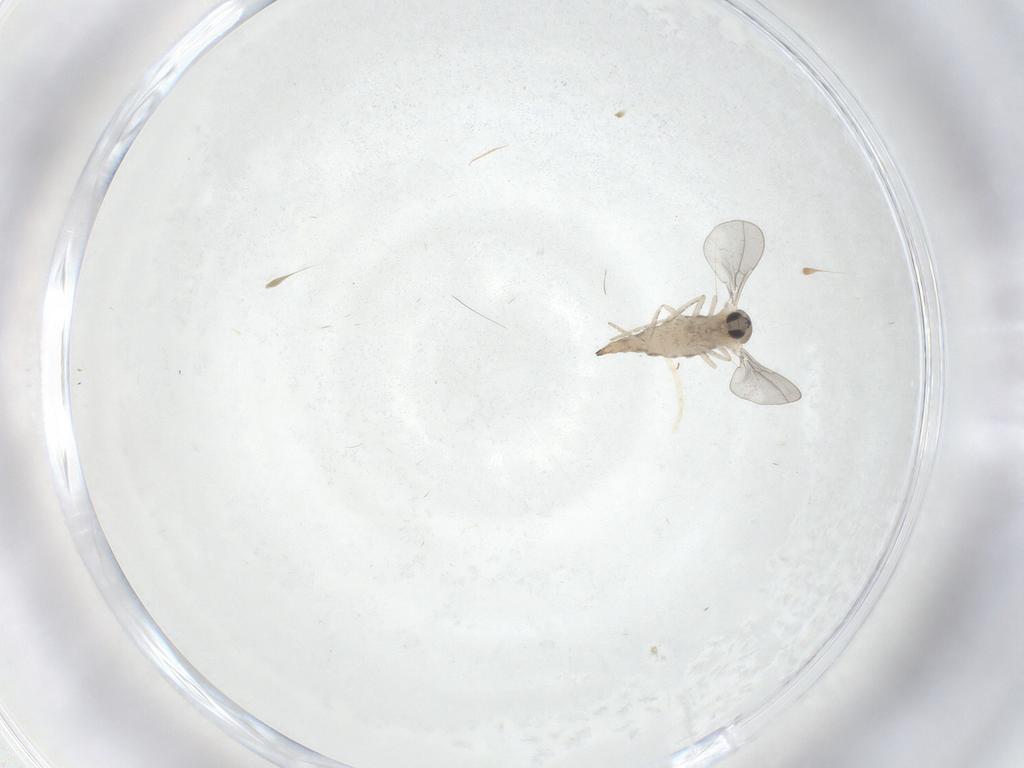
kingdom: Animalia
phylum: Arthropoda
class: Insecta
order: Diptera
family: Cecidomyiidae
